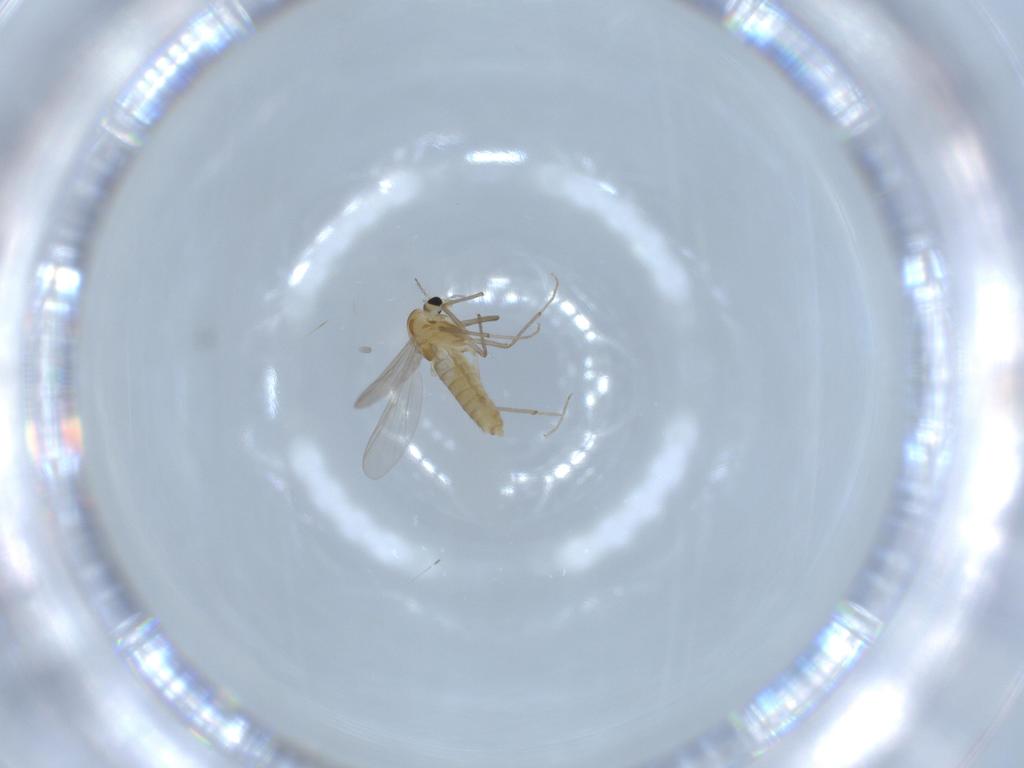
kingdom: Animalia
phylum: Arthropoda
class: Insecta
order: Diptera
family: Chironomidae
